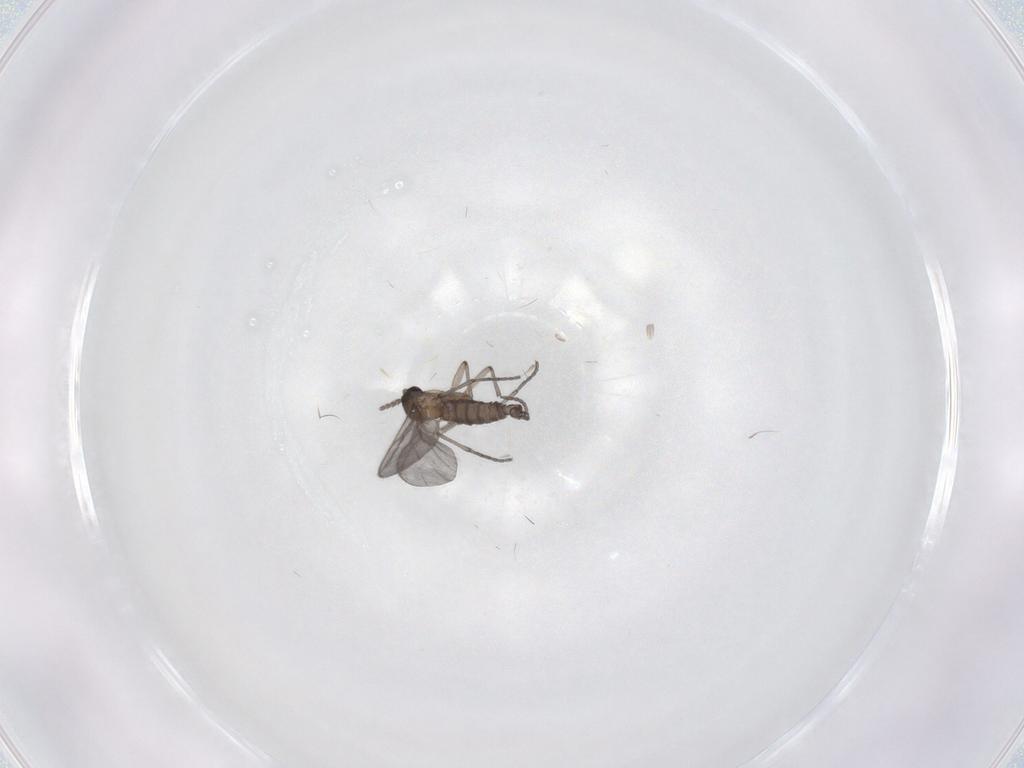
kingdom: Animalia
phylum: Arthropoda
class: Insecta
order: Diptera
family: Sciaridae
